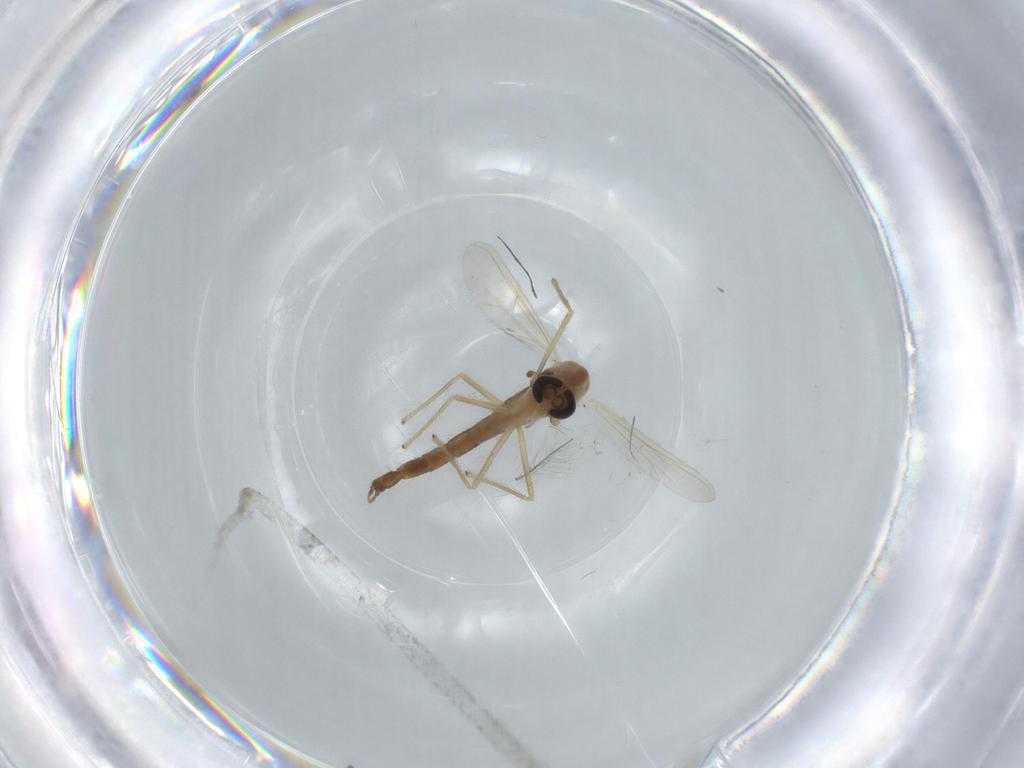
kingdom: Animalia
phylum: Arthropoda
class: Insecta
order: Diptera
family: Chironomidae
